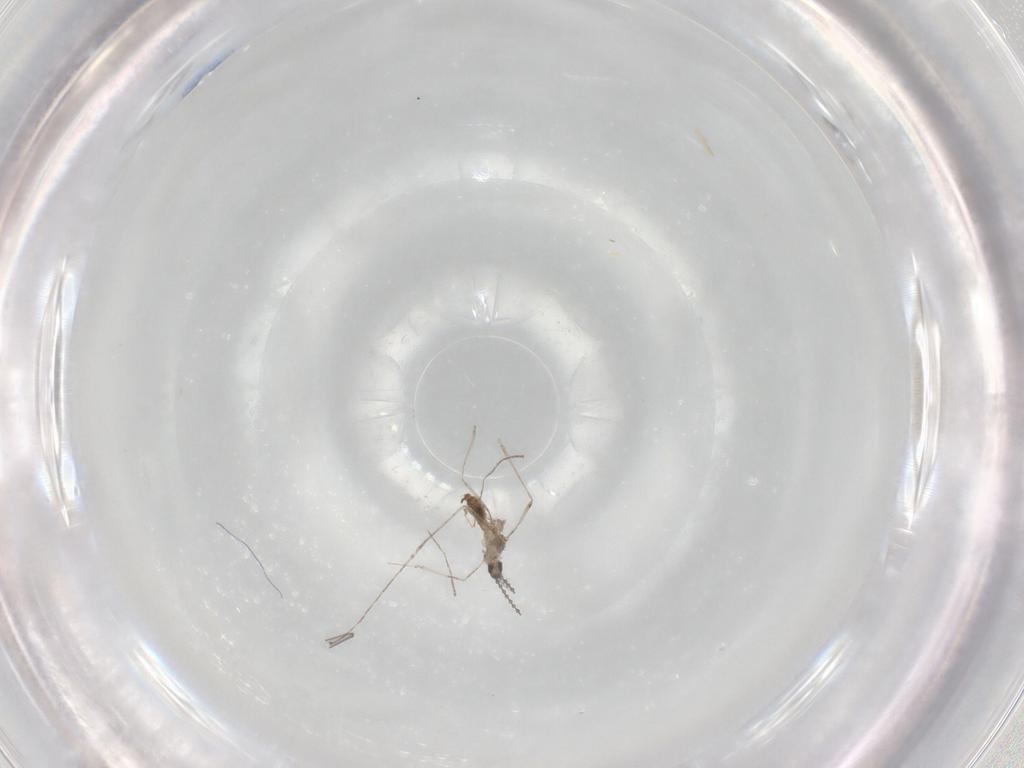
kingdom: Animalia
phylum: Arthropoda
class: Insecta
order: Diptera
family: Cecidomyiidae
